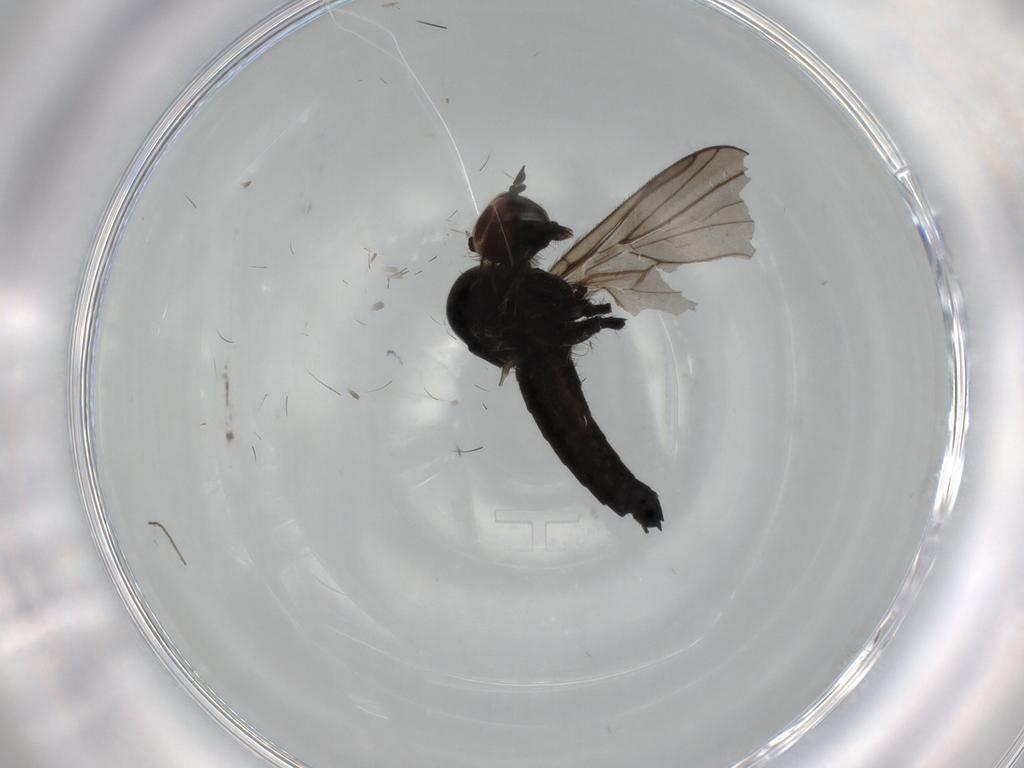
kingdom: Animalia
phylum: Arthropoda
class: Insecta
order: Diptera
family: Hybotidae
